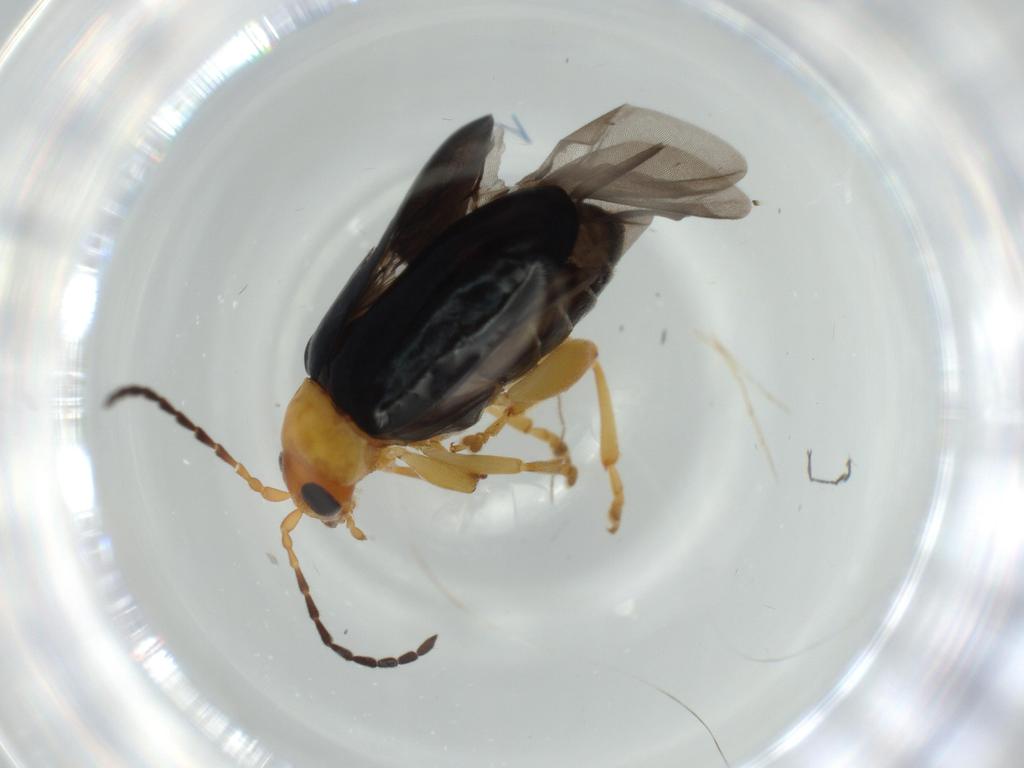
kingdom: Animalia
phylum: Arthropoda
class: Insecta
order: Coleoptera
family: Chrysomelidae
